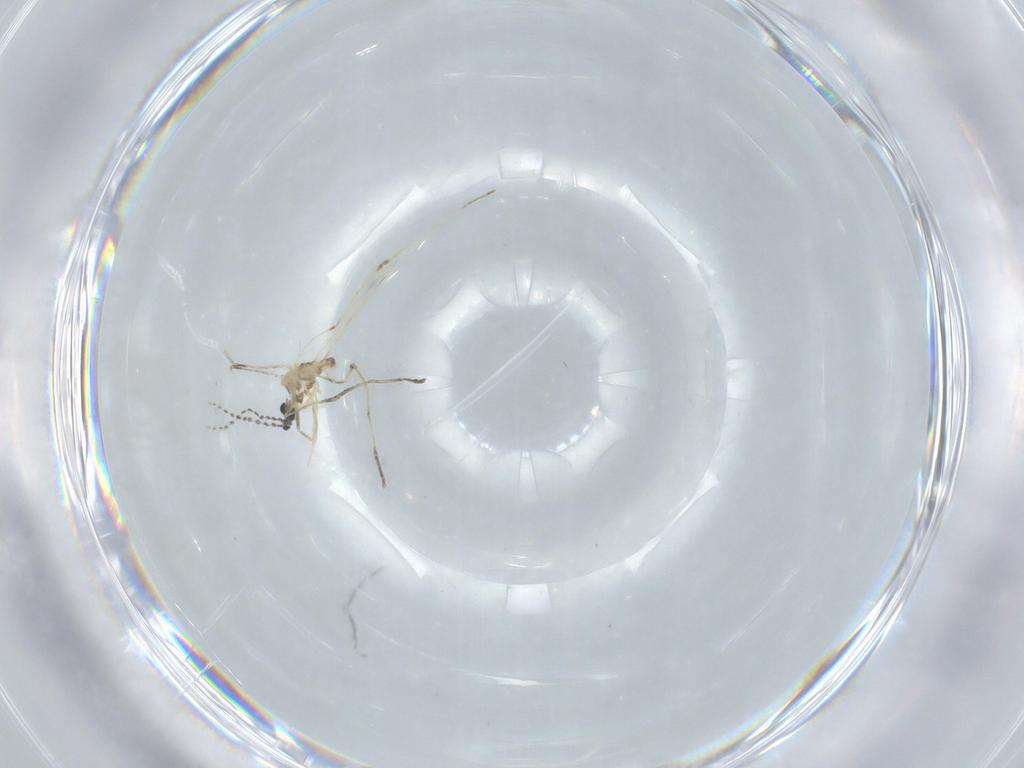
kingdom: Animalia
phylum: Arthropoda
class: Insecta
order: Diptera
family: Cecidomyiidae
